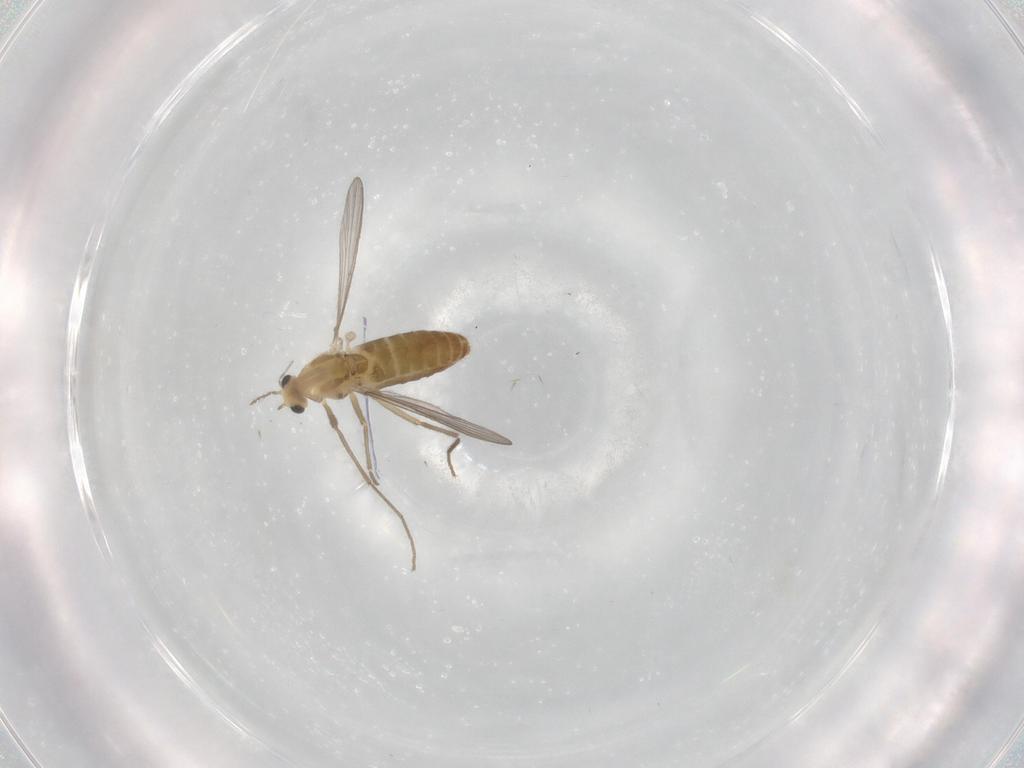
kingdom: Animalia
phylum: Arthropoda
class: Insecta
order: Diptera
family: Chironomidae
